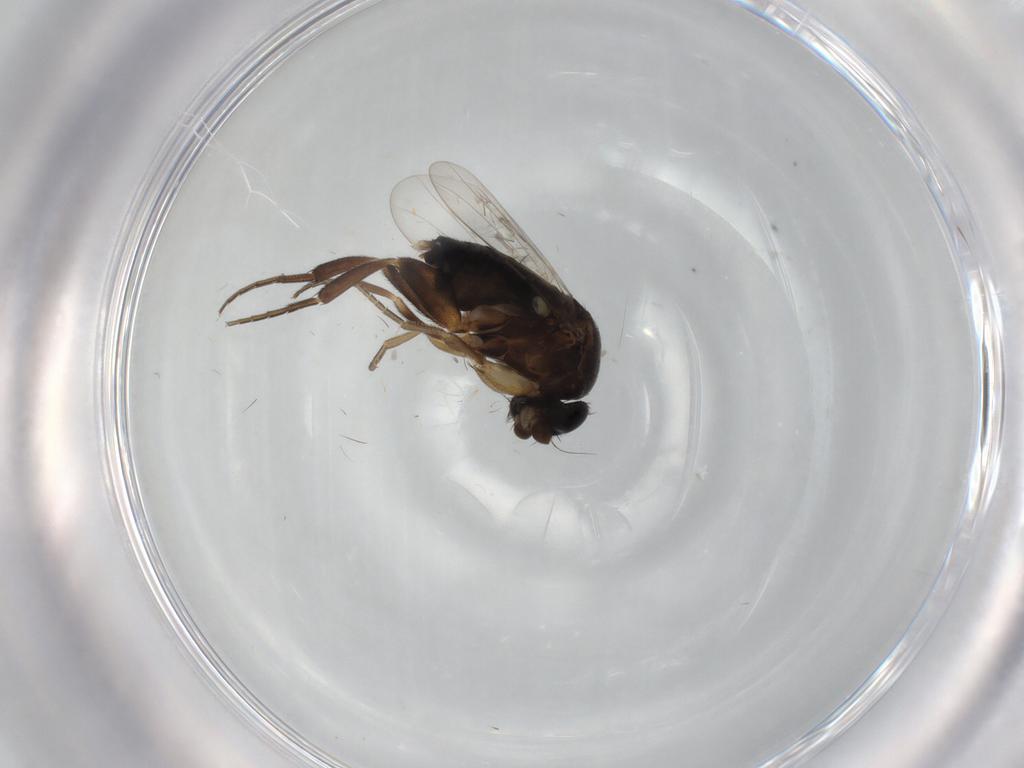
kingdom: Animalia
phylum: Arthropoda
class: Insecta
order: Diptera
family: Phoridae
